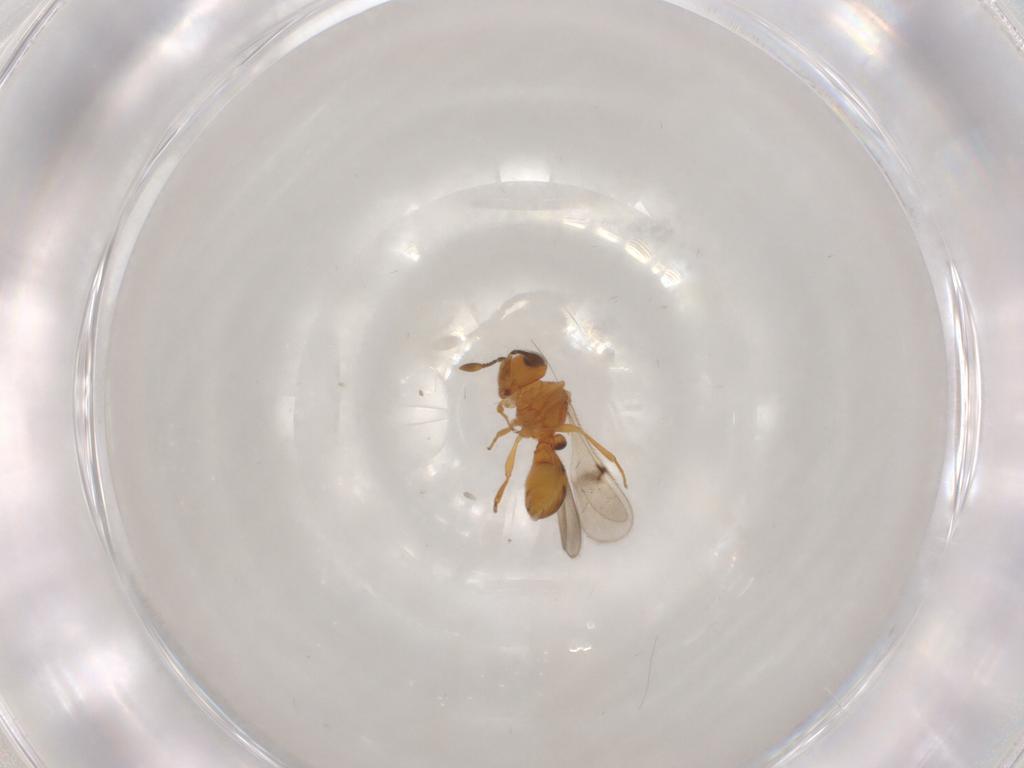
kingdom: Animalia
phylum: Arthropoda
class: Insecta
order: Hymenoptera
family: Scelionidae
